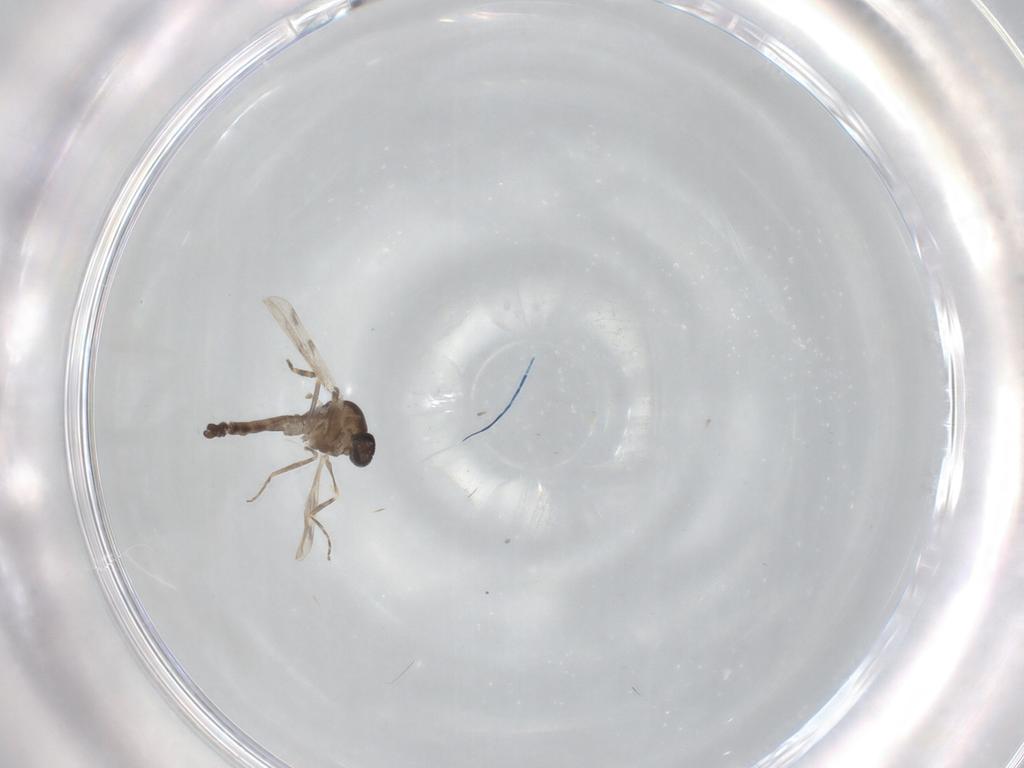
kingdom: Animalia
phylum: Arthropoda
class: Insecta
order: Diptera
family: Ceratopogonidae
